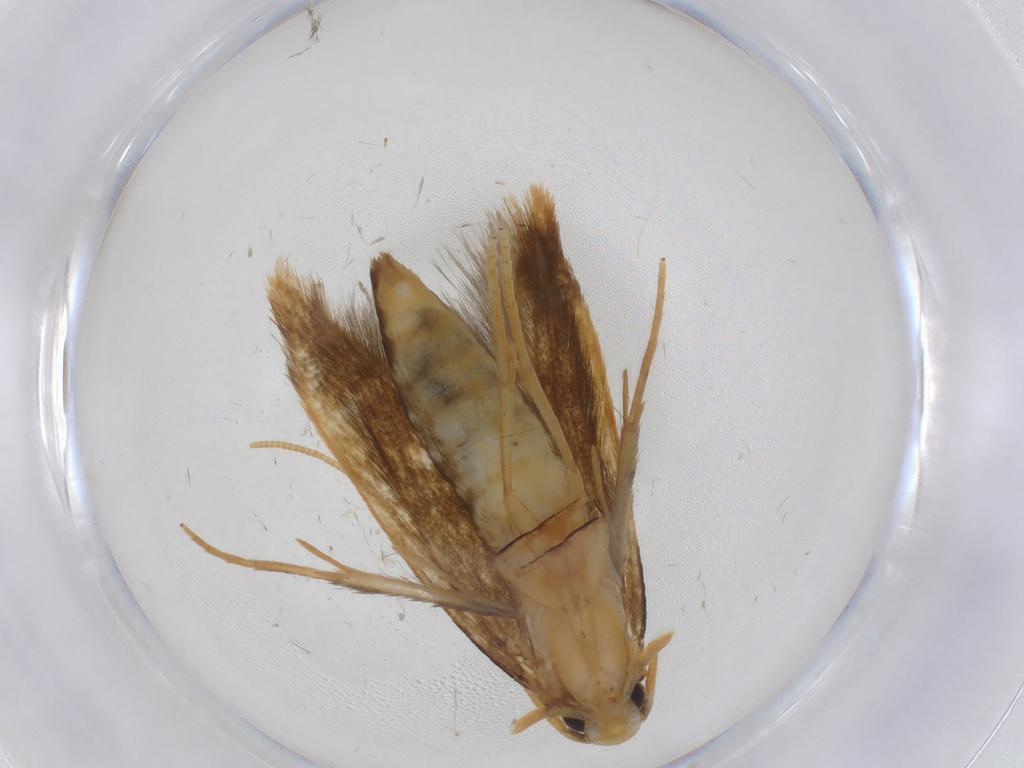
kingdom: Animalia
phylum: Arthropoda
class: Insecta
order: Lepidoptera
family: Tineidae
